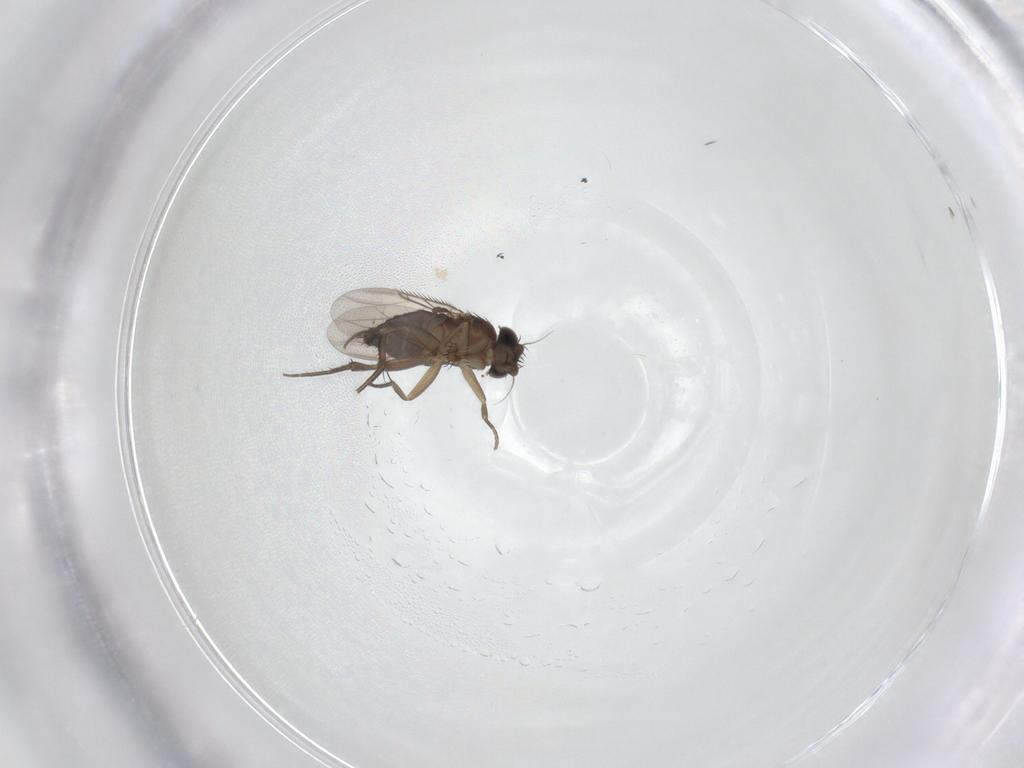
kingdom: Animalia
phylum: Arthropoda
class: Insecta
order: Diptera
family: Phoridae
